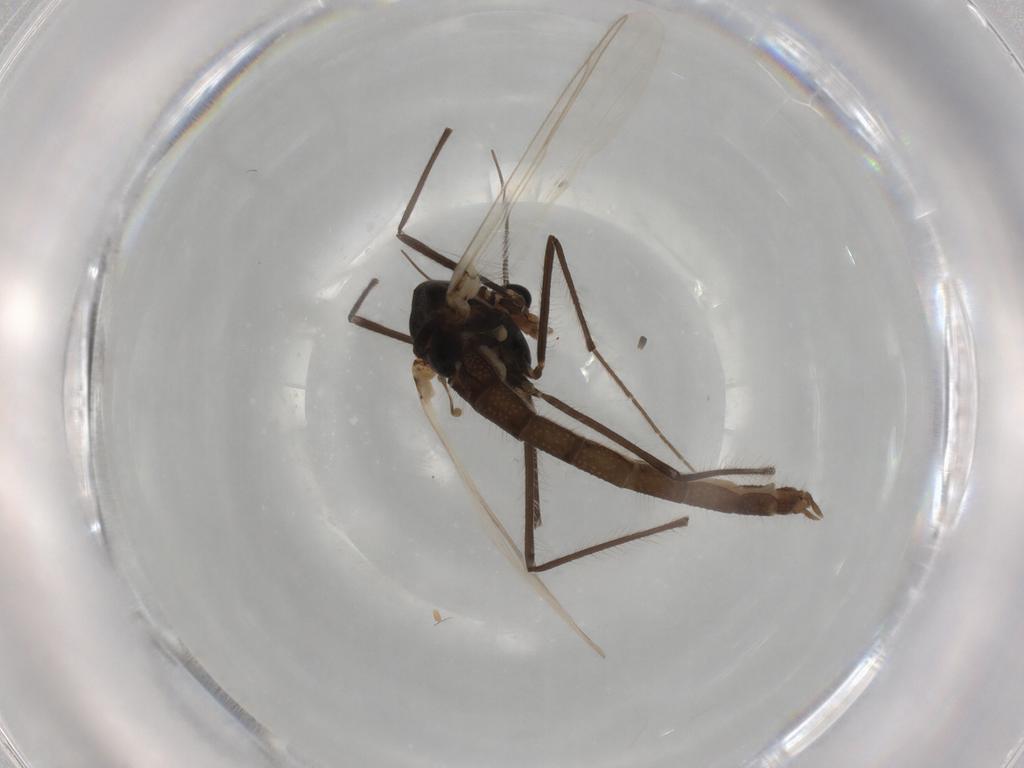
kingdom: Animalia
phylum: Arthropoda
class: Insecta
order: Diptera
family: Chironomidae
